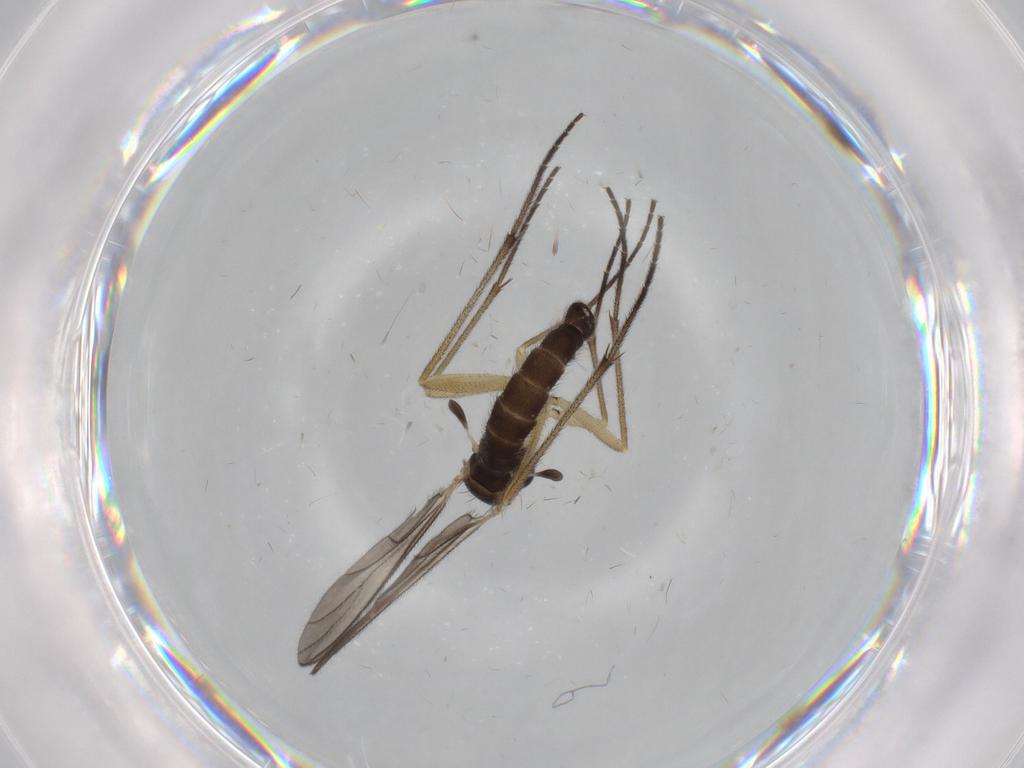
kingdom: Animalia
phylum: Arthropoda
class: Insecta
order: Diptera
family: Sciaridae
